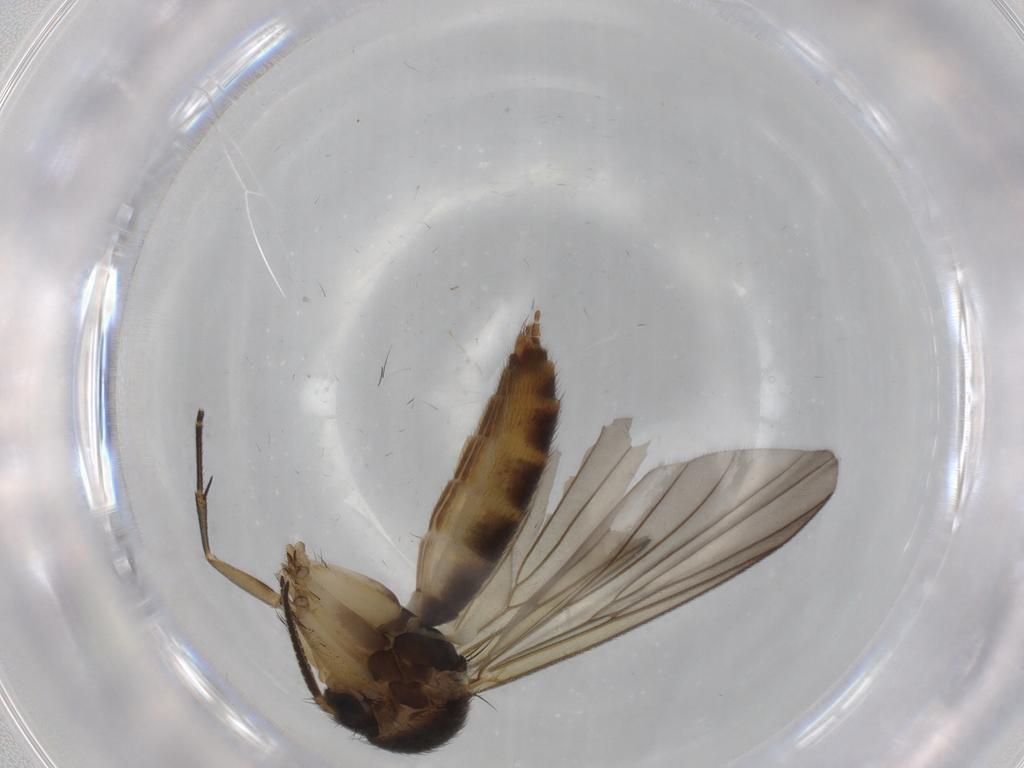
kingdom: Animalia
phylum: Arthropoda
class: Insecta
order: Diptera
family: Mycetophilidae
